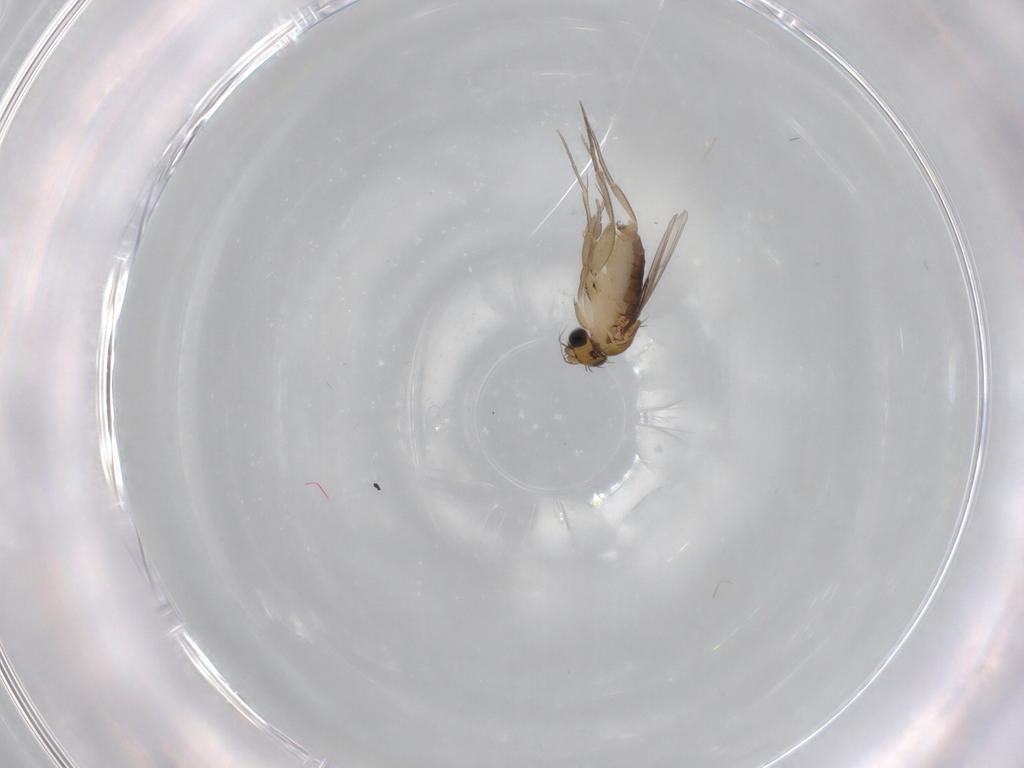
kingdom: Animalia
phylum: Arthropoda
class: Insecta
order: Diptera
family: Phoridae
